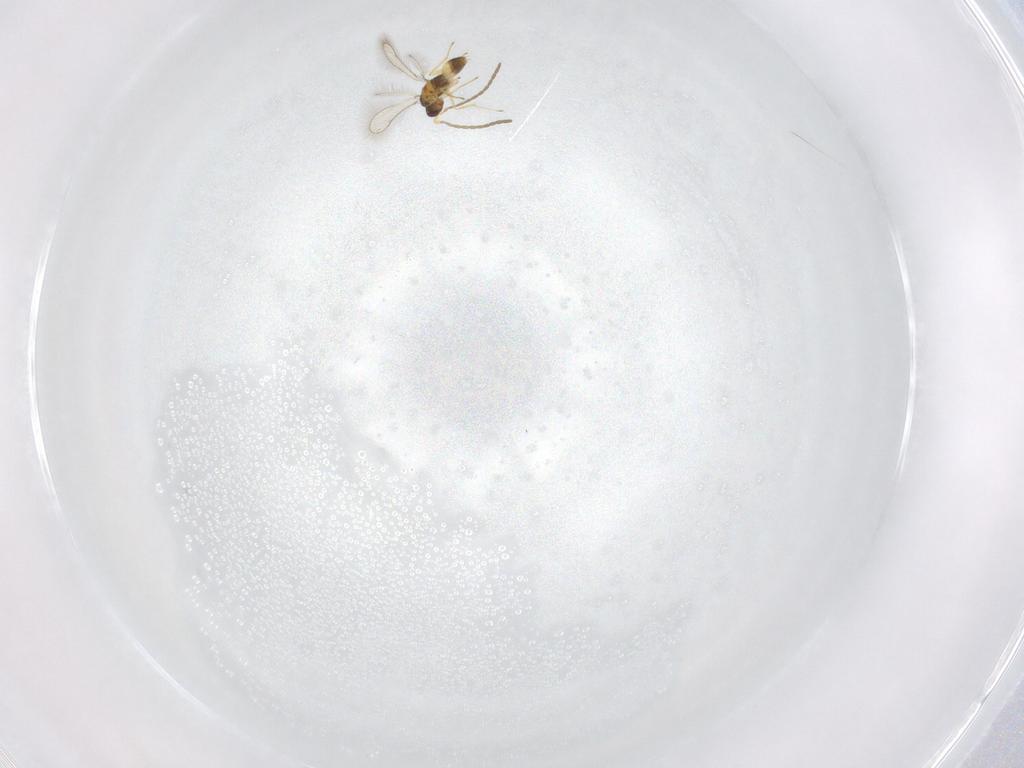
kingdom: Animalia
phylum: Arthropoda
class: Insecta
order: Hymenoptera
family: Mymaridae
